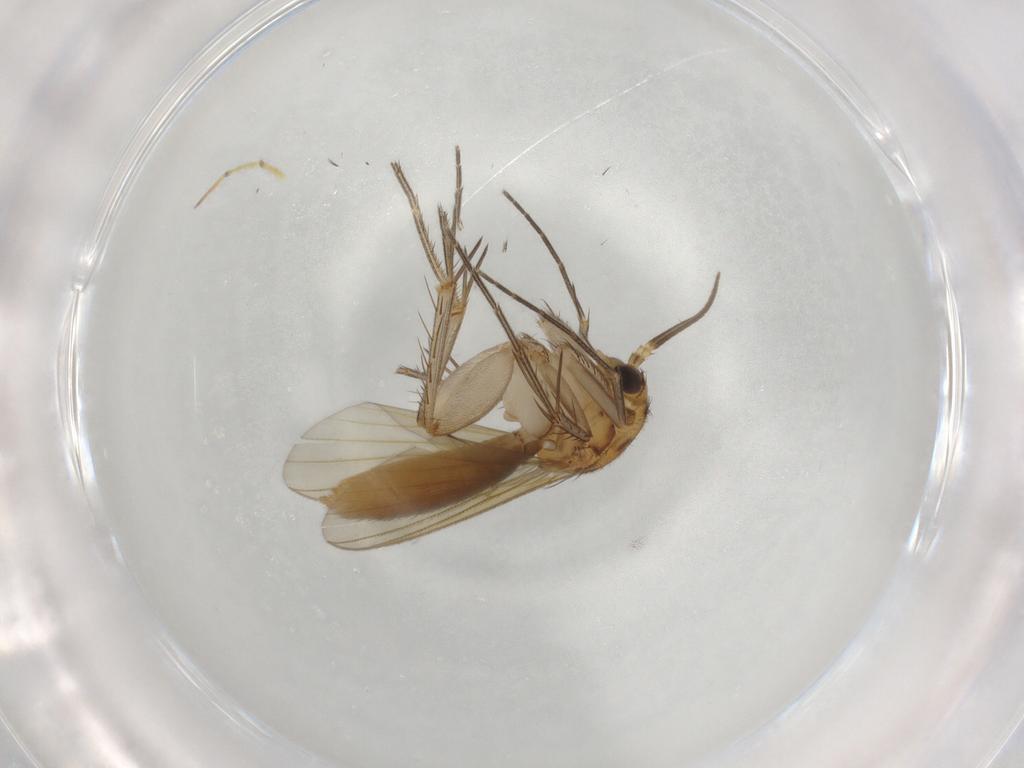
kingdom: Animalia
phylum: Arthropoda
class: Insecta
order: Diptera
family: Mycetophilidae
